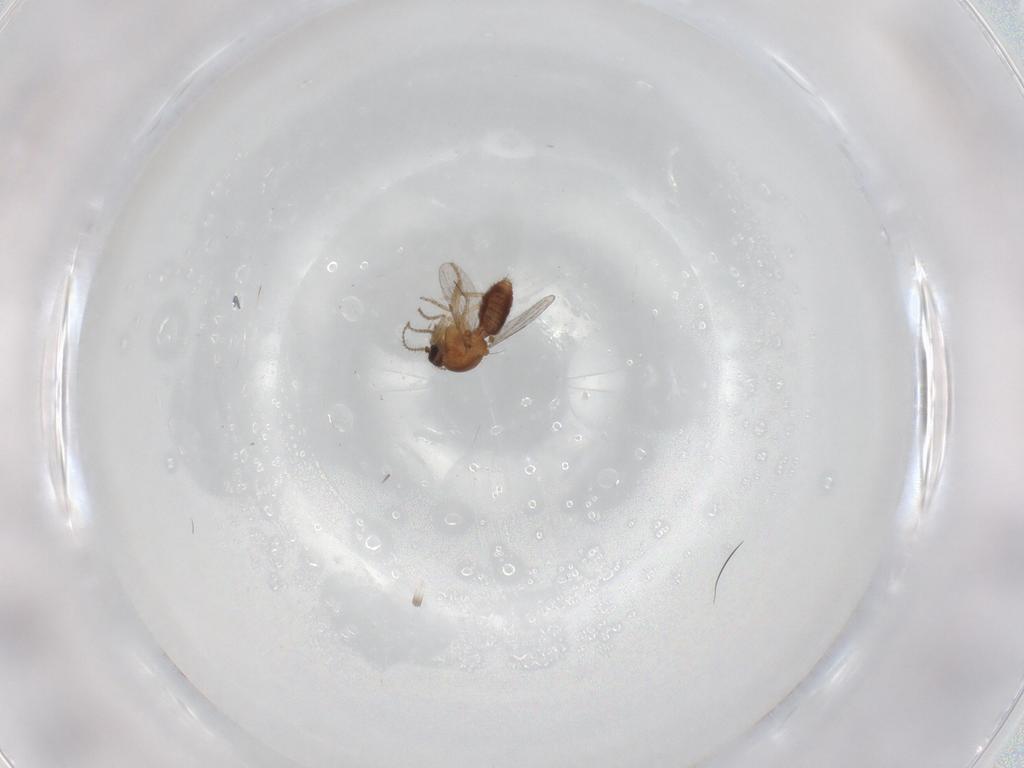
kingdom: Animalia
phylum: Arthropoda
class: Insecta
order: Diptera
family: Ceratopogonidae
